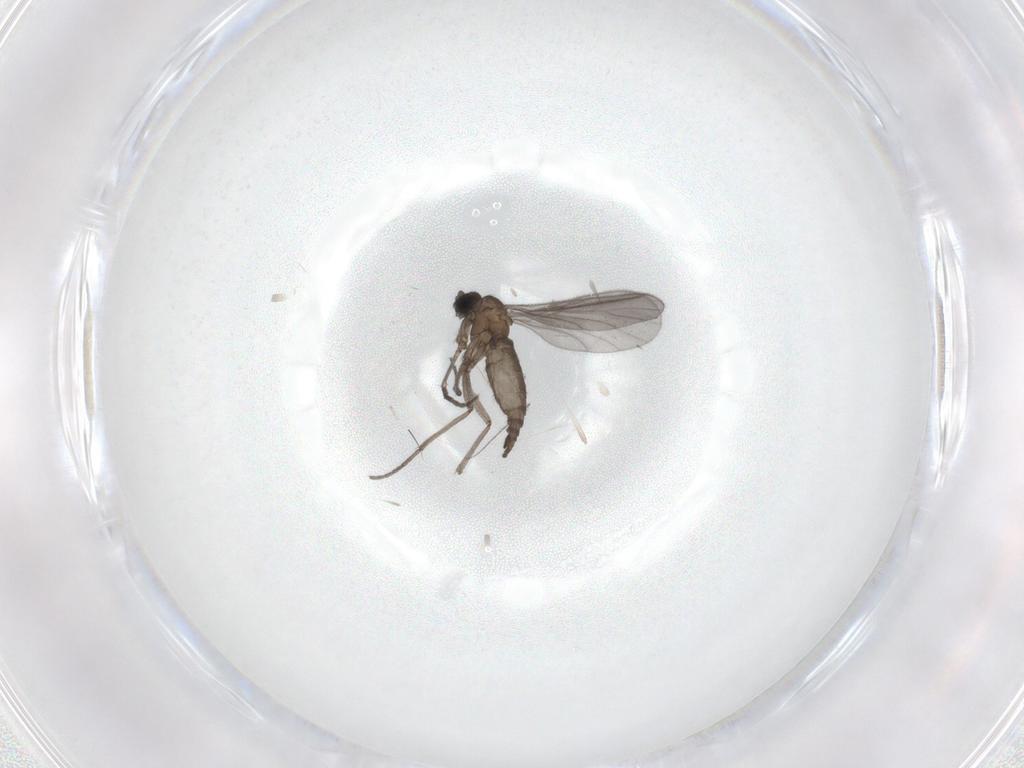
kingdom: Animalia
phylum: Arthropoda
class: Insecta
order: Diptera
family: Sciaridae
